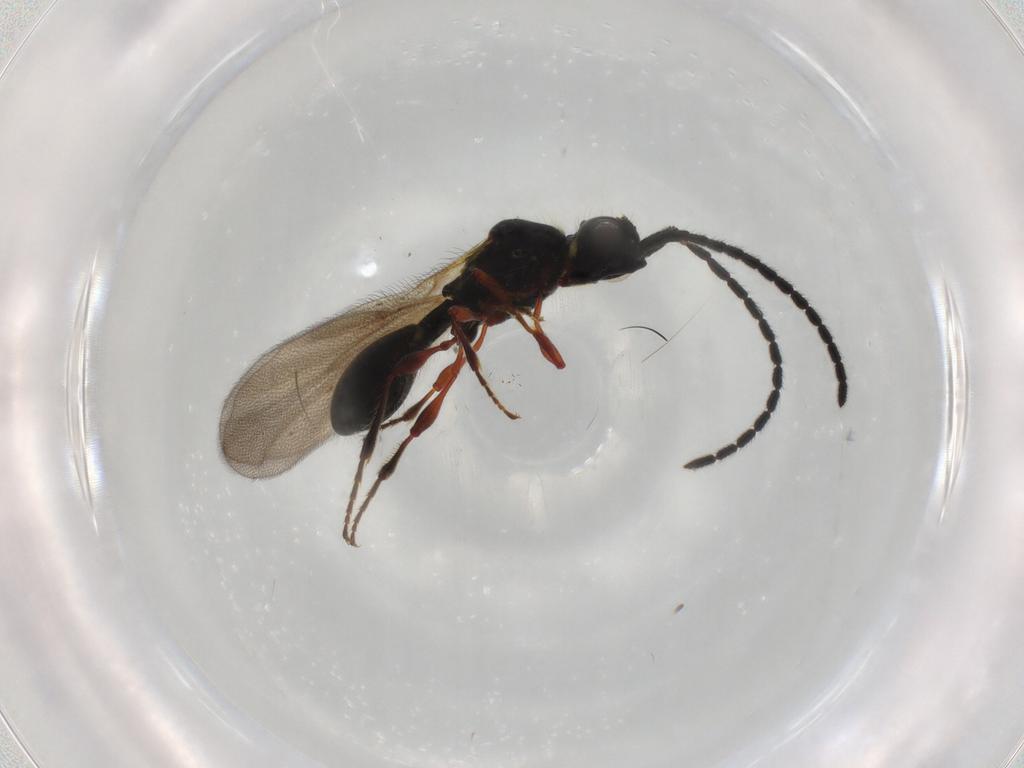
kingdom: Animalia
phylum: Arthropoda
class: Insecta
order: Hymenoptera
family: Diapriidae
